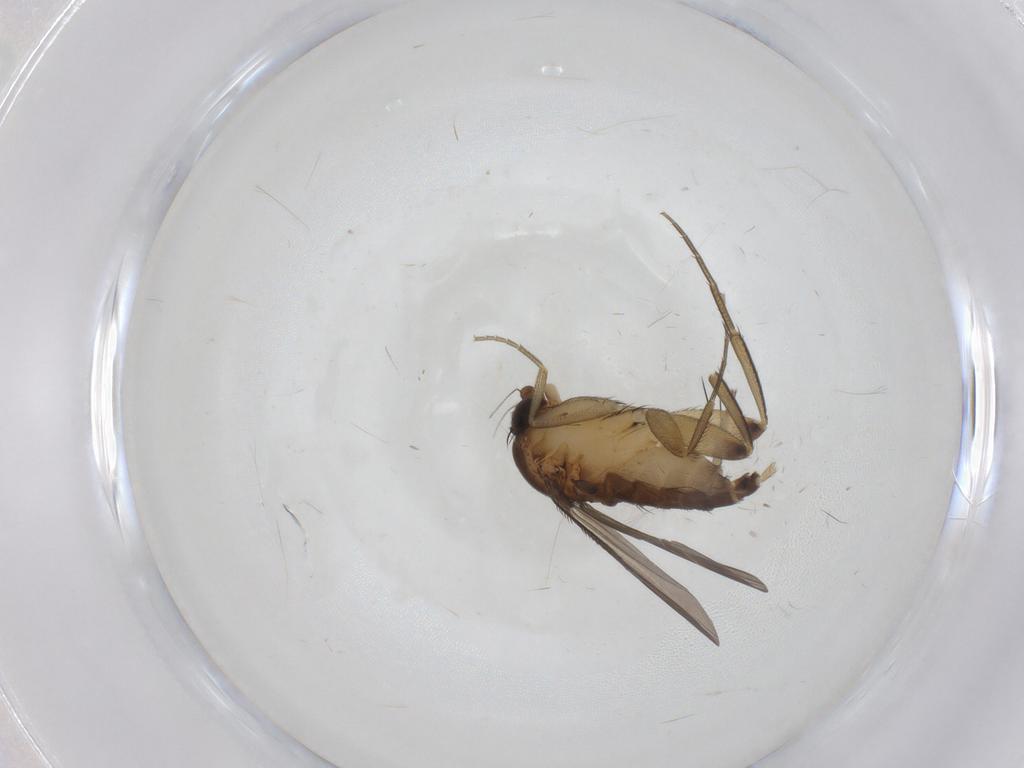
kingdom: Animalia
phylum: Arthropoda
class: Insecta
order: Diptera
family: Phoridae
